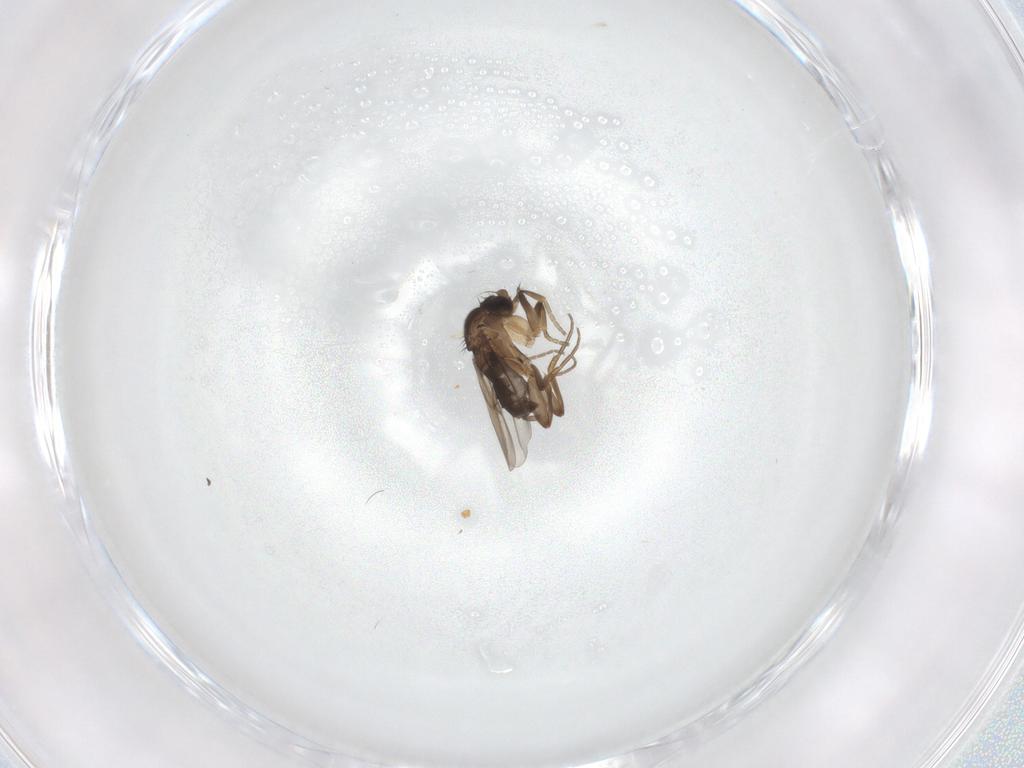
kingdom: Animalia
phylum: Arthropoda
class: Insecta
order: Diptera
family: Phoridae
